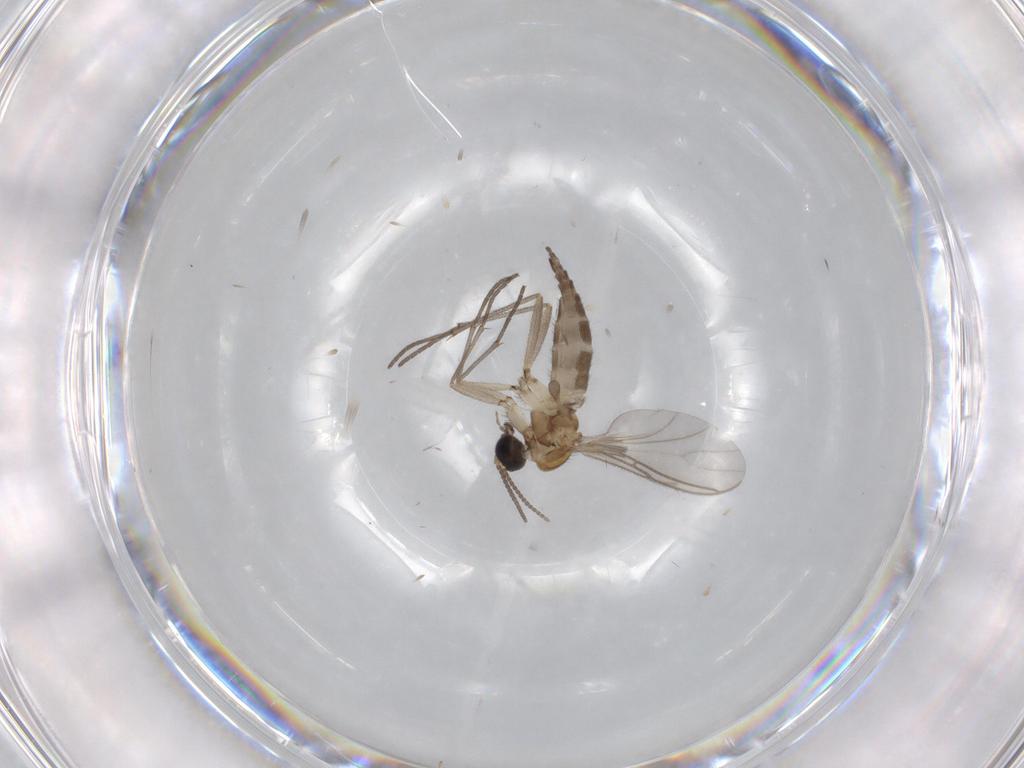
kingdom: Animalia
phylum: Arthropoda
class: Insecta
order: Diptera
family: Sciaridae
